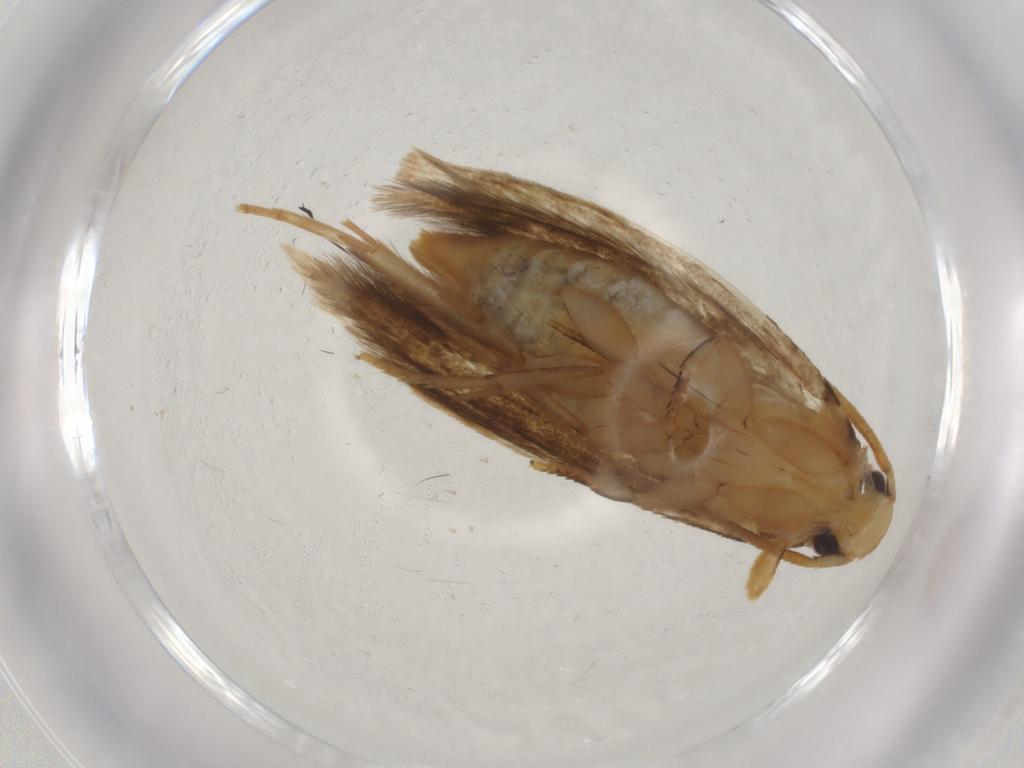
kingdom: Animalia
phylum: Arthropoda
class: Insecta
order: Lepidoptera
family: Tineidae
